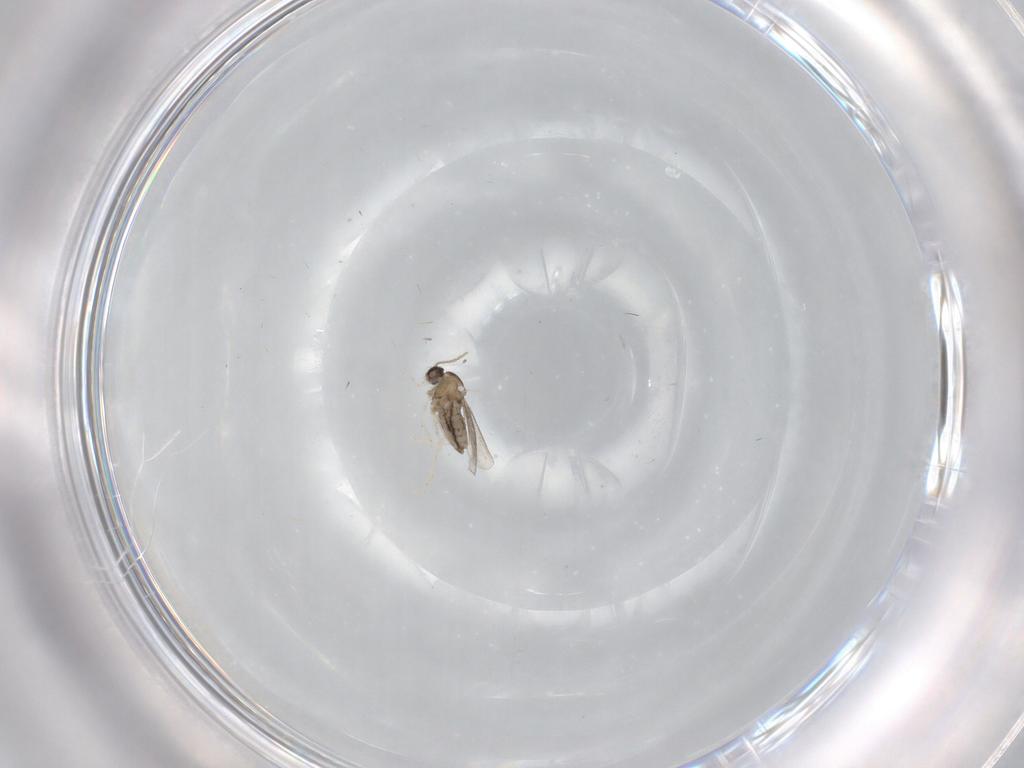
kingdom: Animalia
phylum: Arthropoda
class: Insecta
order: Diptera
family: Cecidomyiidae
